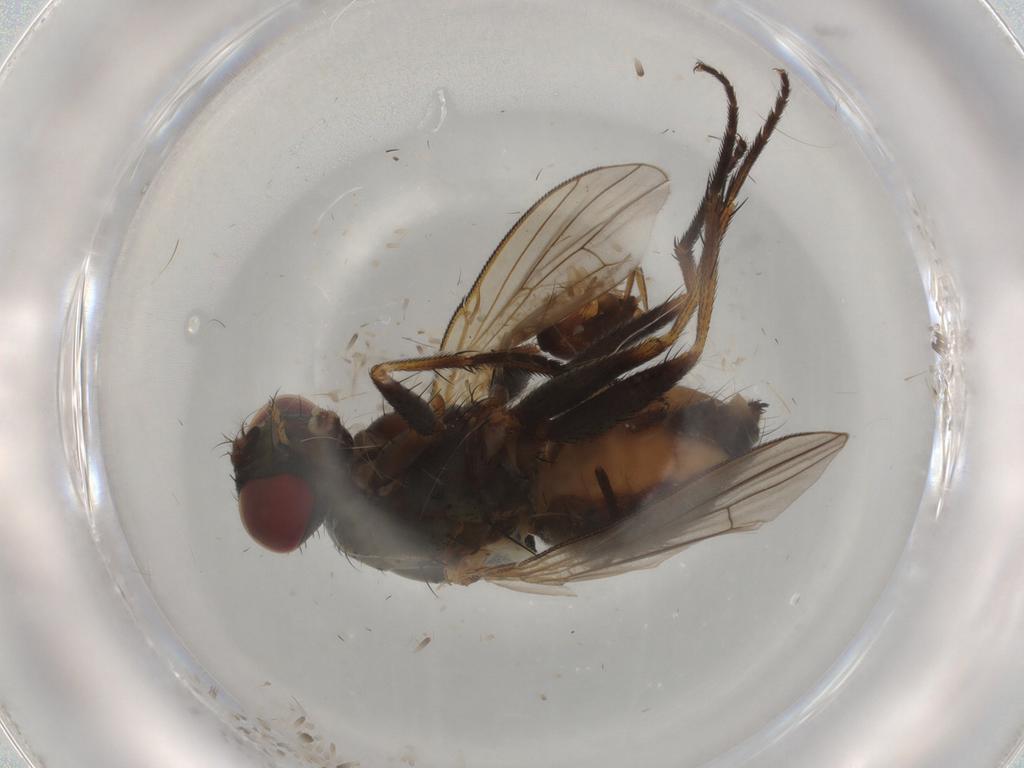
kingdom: Animalia
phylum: Arthropoda
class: Insecta
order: Diptera
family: Muscidae
